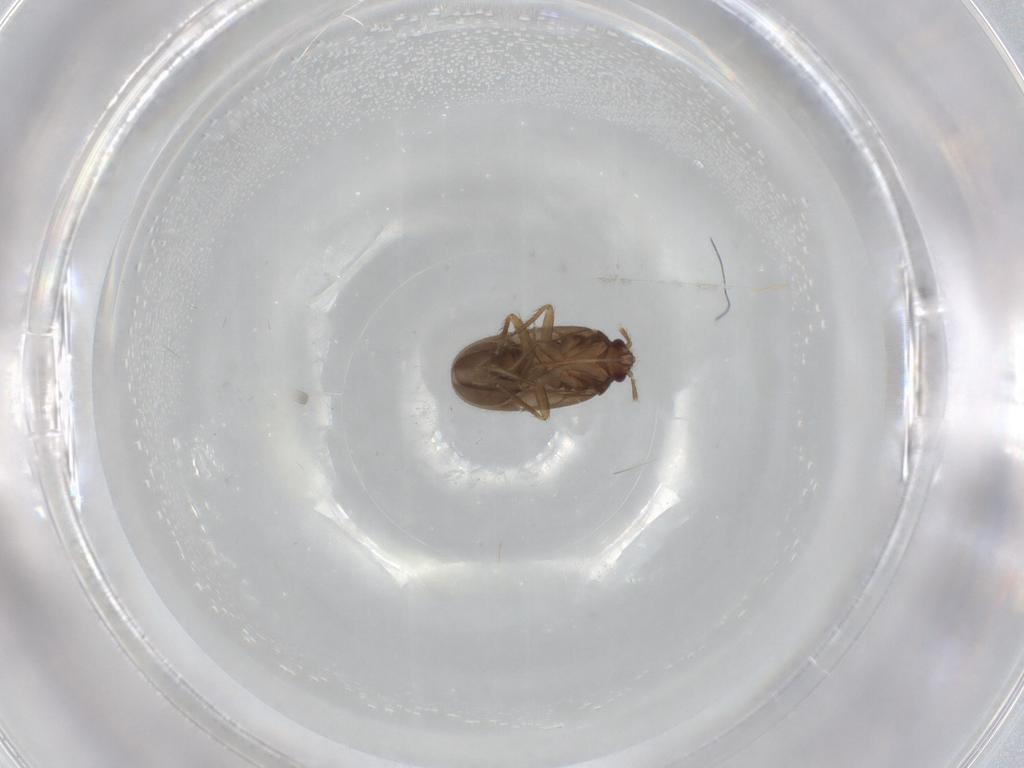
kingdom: Animalia
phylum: Arthropoda
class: Insecta
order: Hemiptera
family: Ceratocombidae
